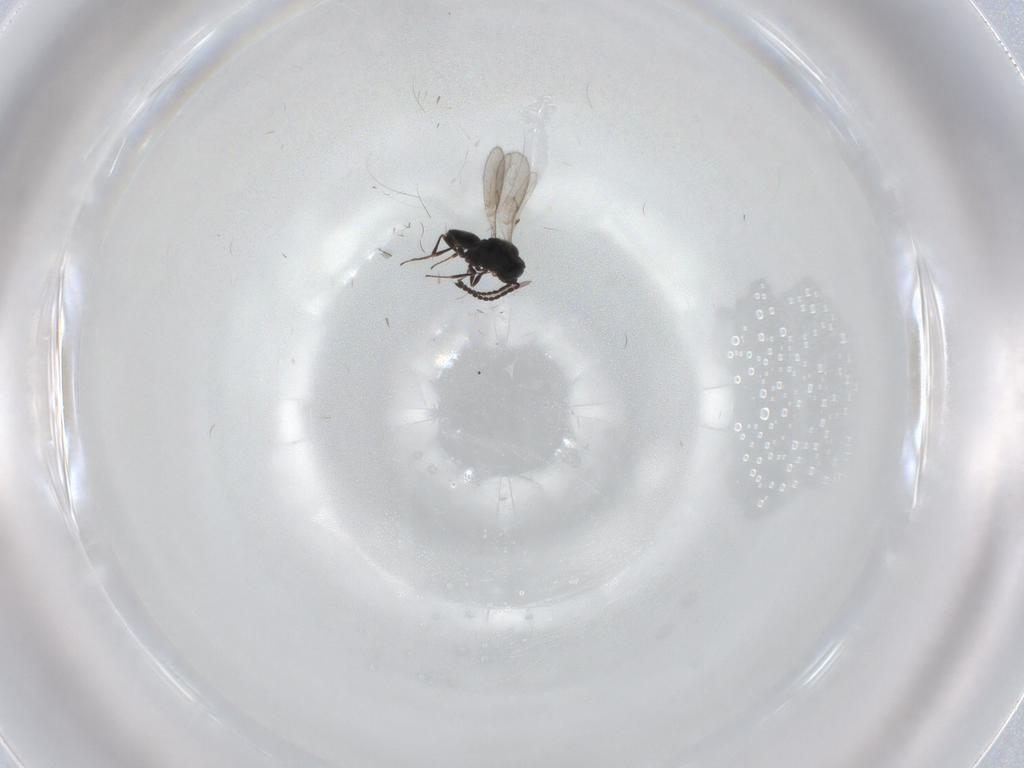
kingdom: Animalia
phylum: Arthropoda
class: Insecta
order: Hymenoptera
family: Scelionidae
